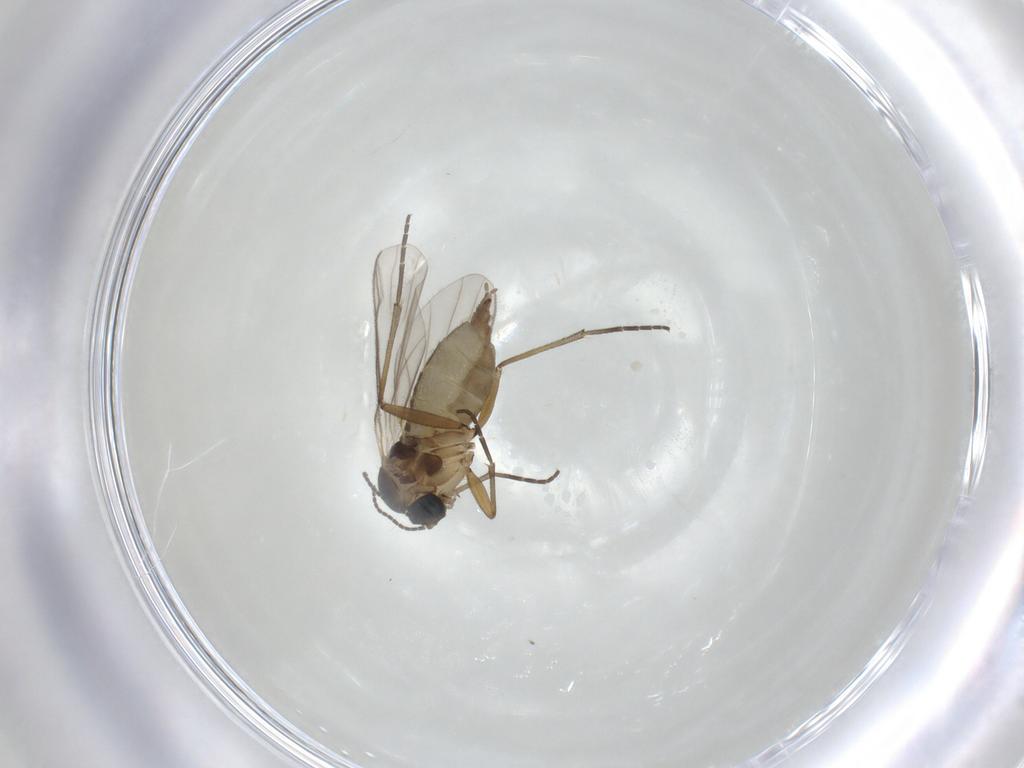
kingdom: Animalia
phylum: Arthropoda
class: Insecta
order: Diptera
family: Cecidomyiidae
